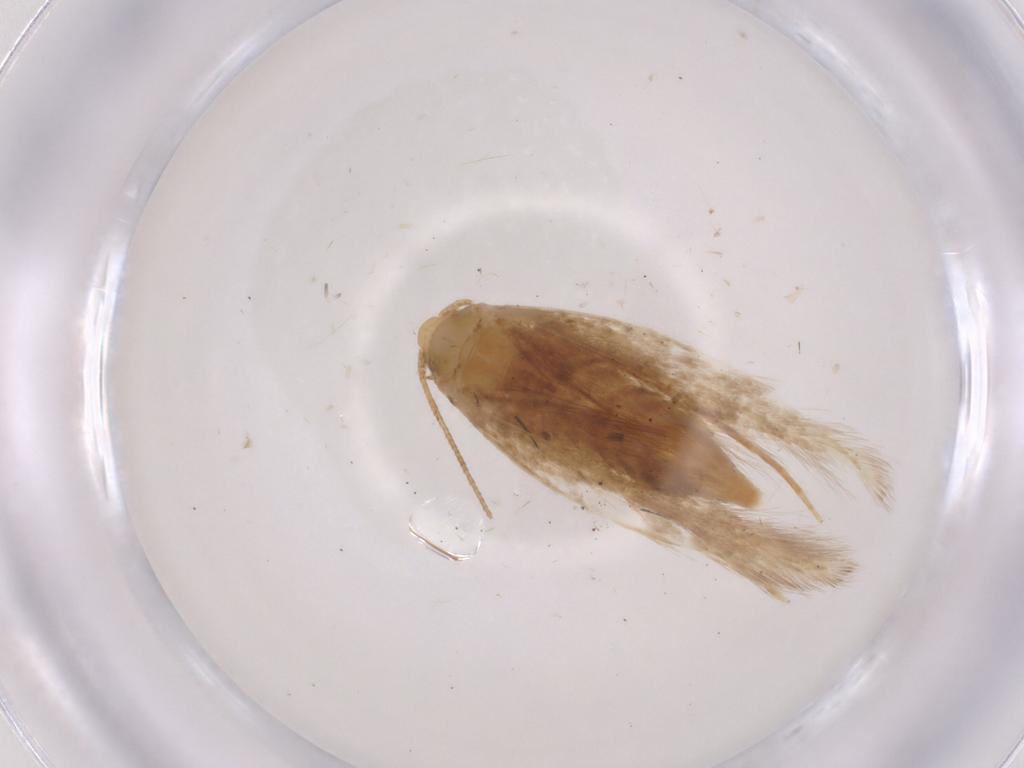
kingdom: Animalia
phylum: Arthropoda
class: Insecta
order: Lepidoptera
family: Tineidae
